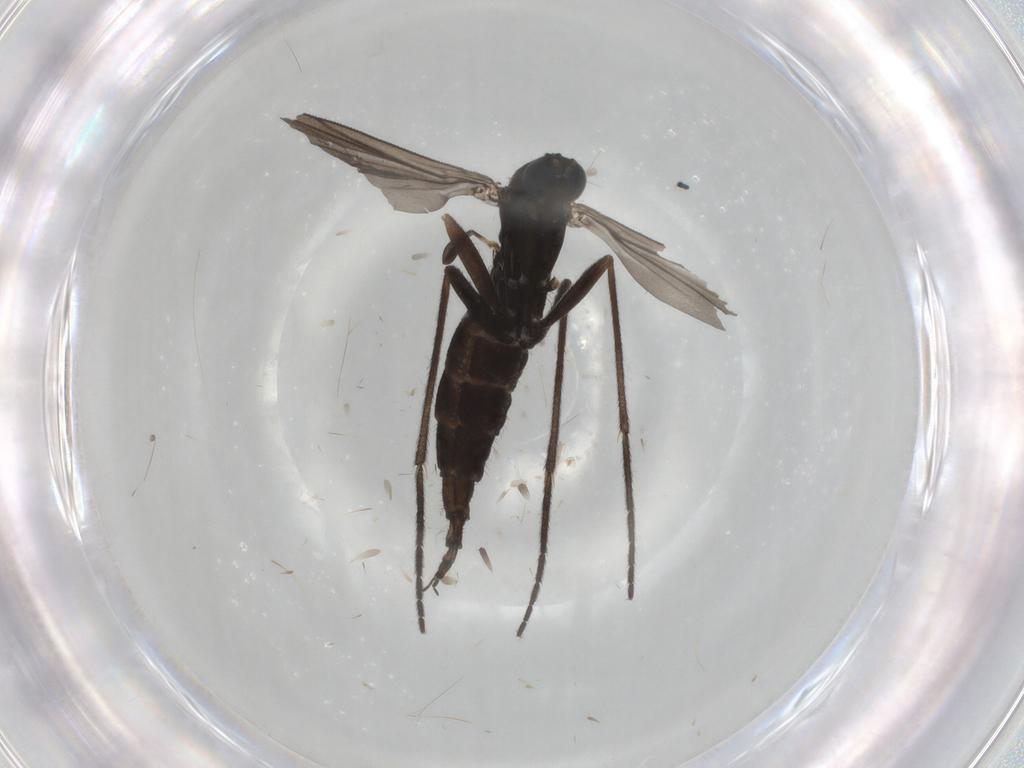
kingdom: Animalia
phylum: Arthropoda
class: Insecta
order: Diptera
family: Sciaridae
